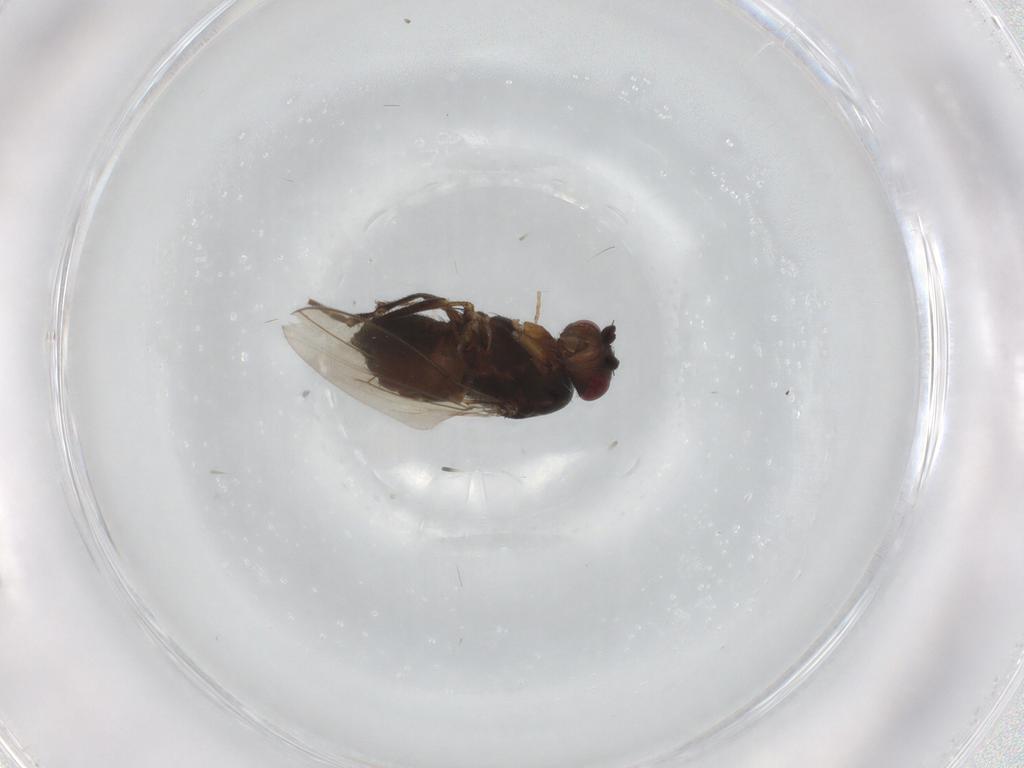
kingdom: Animalia
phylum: Arthropoda
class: Insecta
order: Diptera
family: Sphaeroceridae
